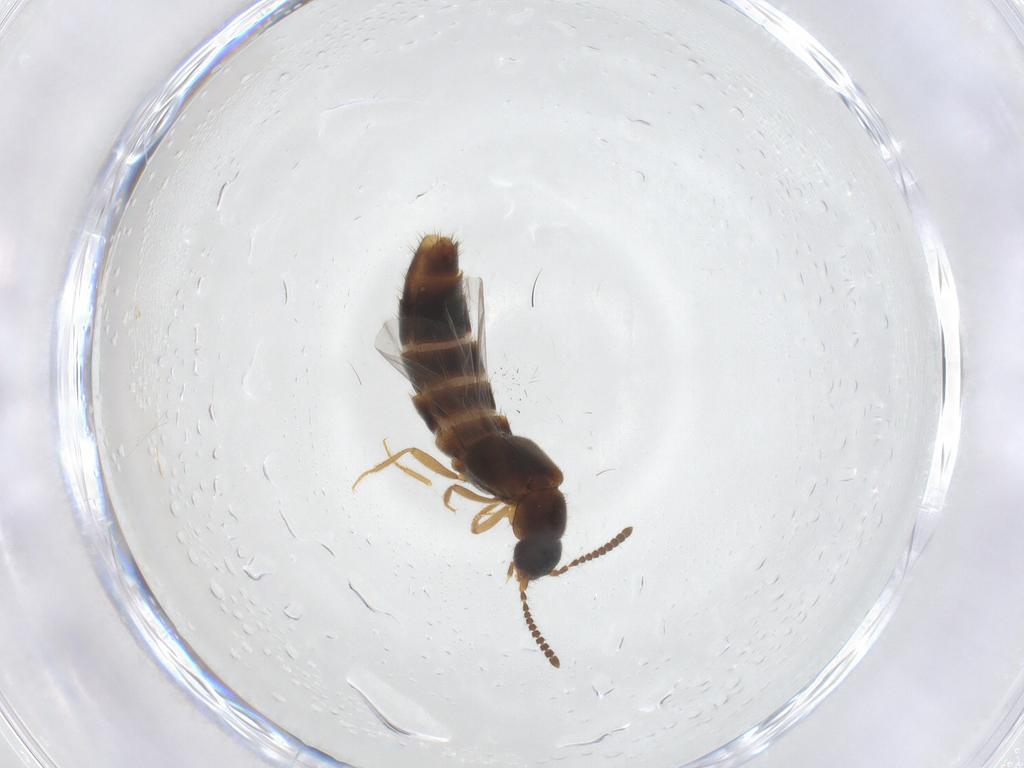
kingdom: Animalia
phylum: Arthropoda
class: Insecta
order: Coleoptera
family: Staphylinidae
